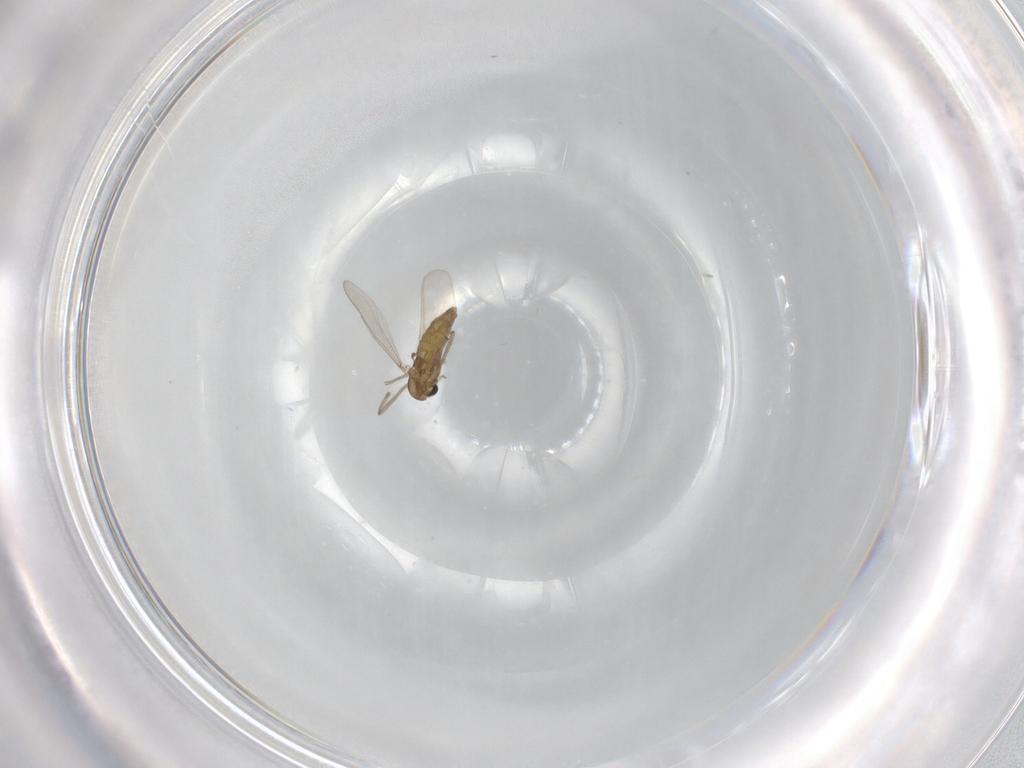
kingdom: Animalia
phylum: Arthropoda
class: Insecta
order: Diptera
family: Chironomidae
